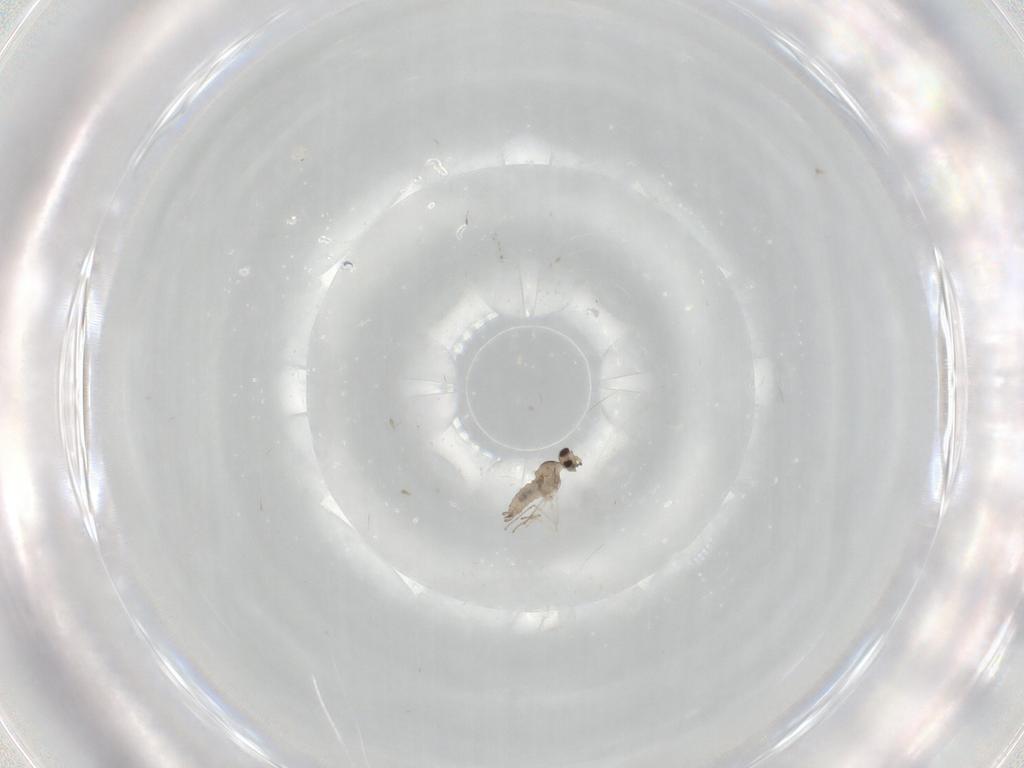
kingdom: Animalia
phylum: Arthropoda
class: Insecta
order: Diptera
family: Cecidomyiidae
